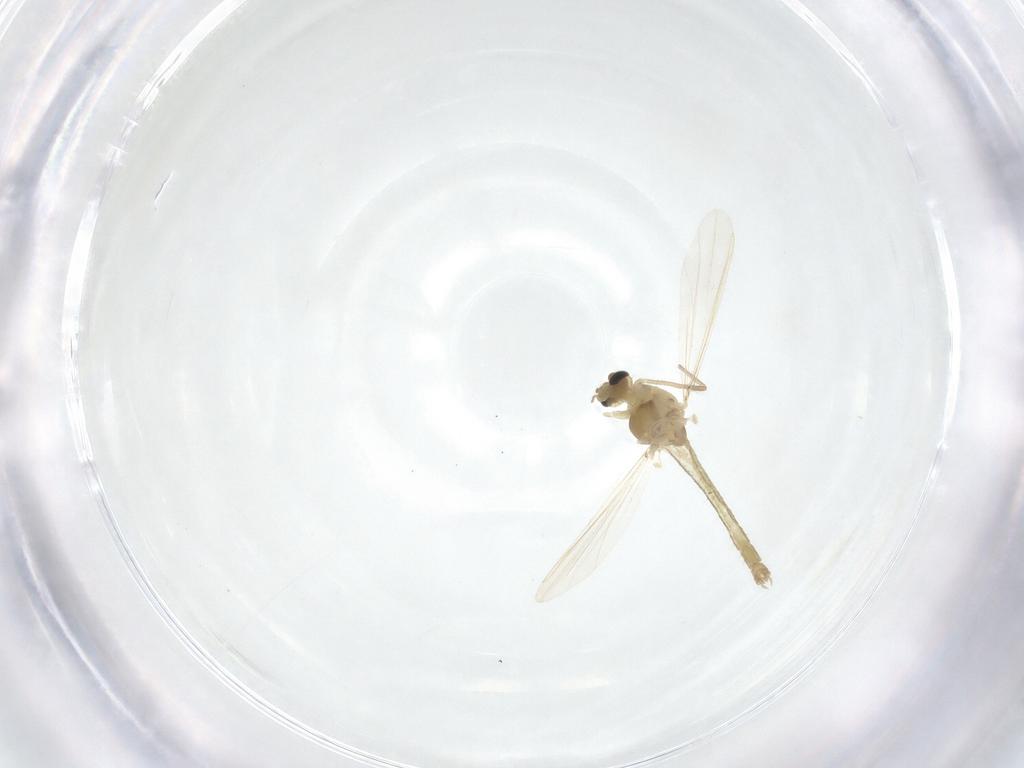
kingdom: Animalia
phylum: Arthropoda
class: Insecta
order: Diptera
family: Chironomidae
